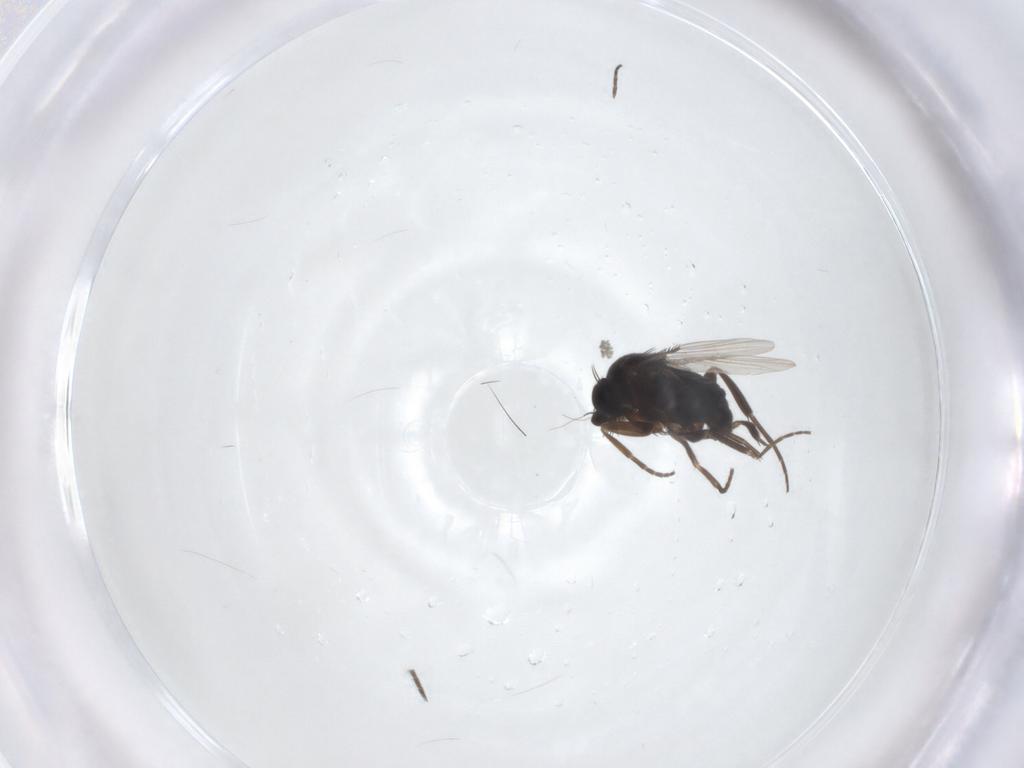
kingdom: Animalia
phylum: Arthropoda
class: Insecta
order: Diptera
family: Phoridae
